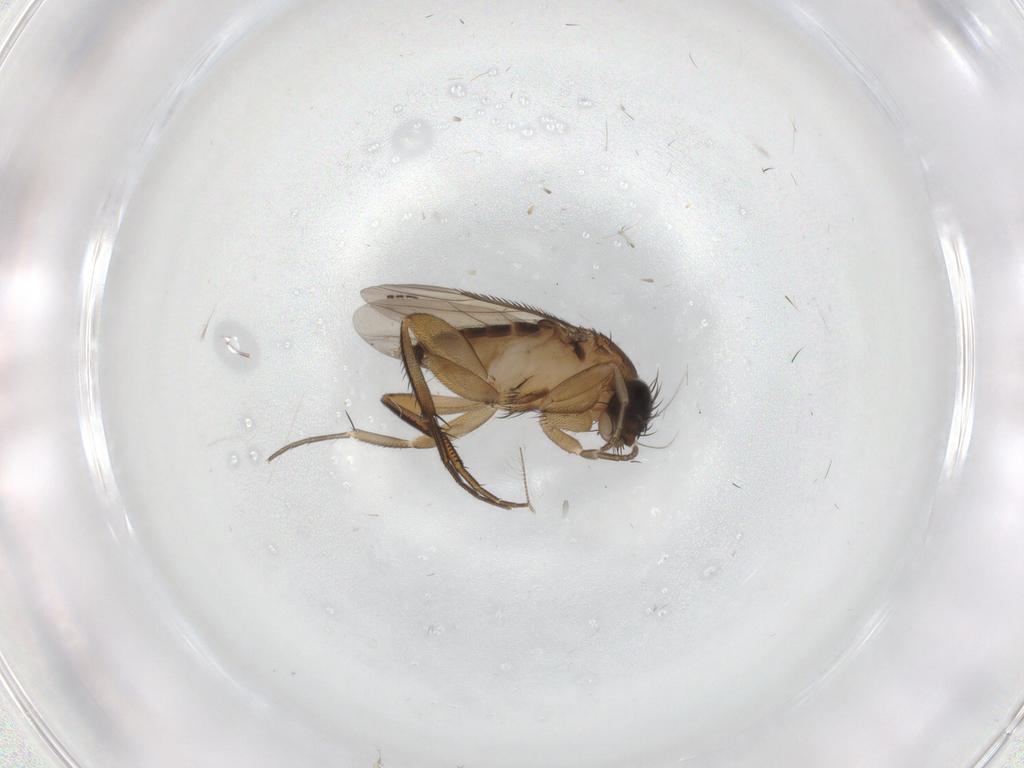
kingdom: Animalia
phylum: Arthropoda
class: Insecta
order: Diptera
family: Phoridae
